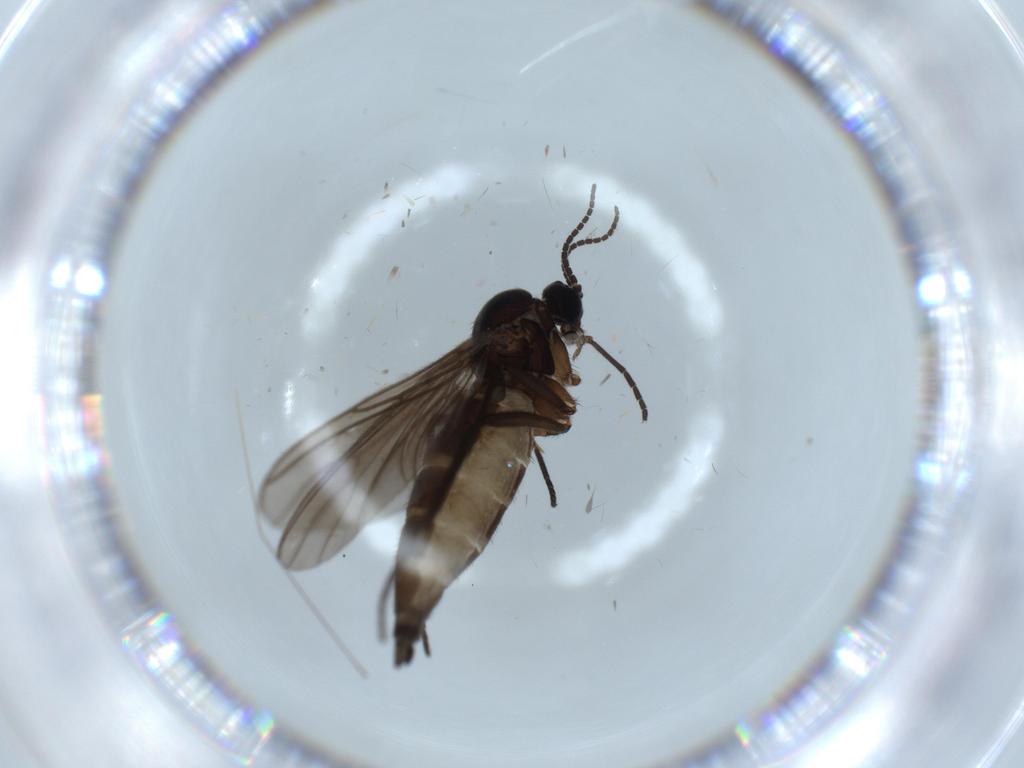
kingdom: Animalia
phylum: Arthropoda
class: Insecta
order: Diptera
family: Sciaridae
